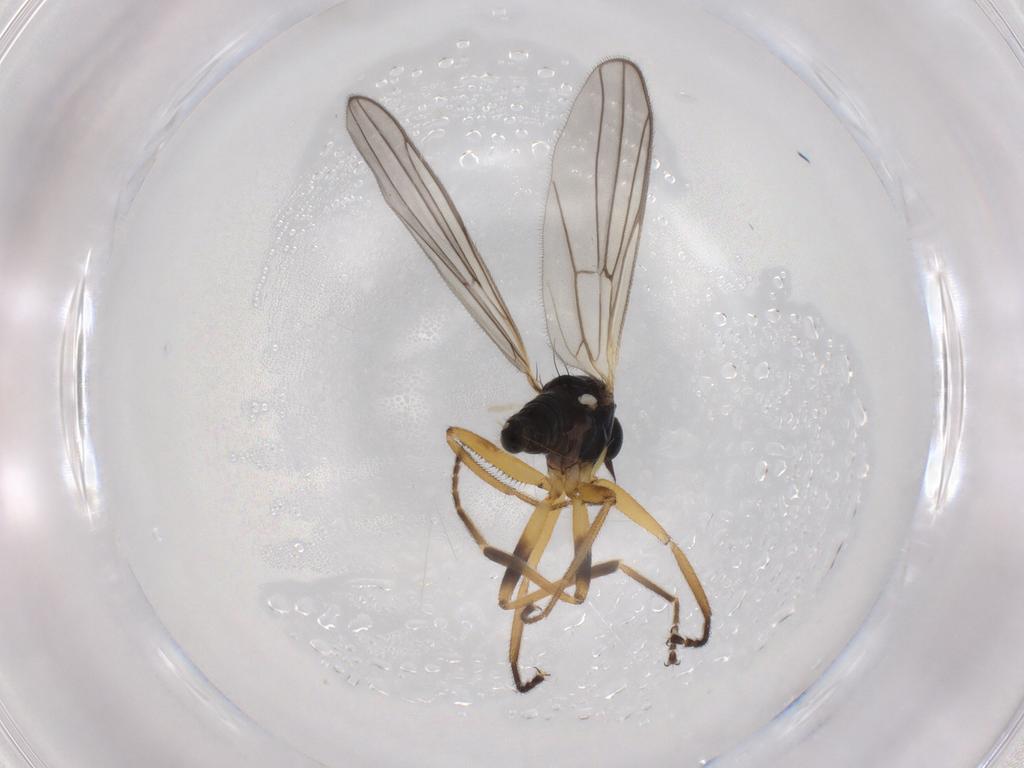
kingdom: Animalia
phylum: Arthropoda
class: Insecta
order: Diptera
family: Hybotidae
